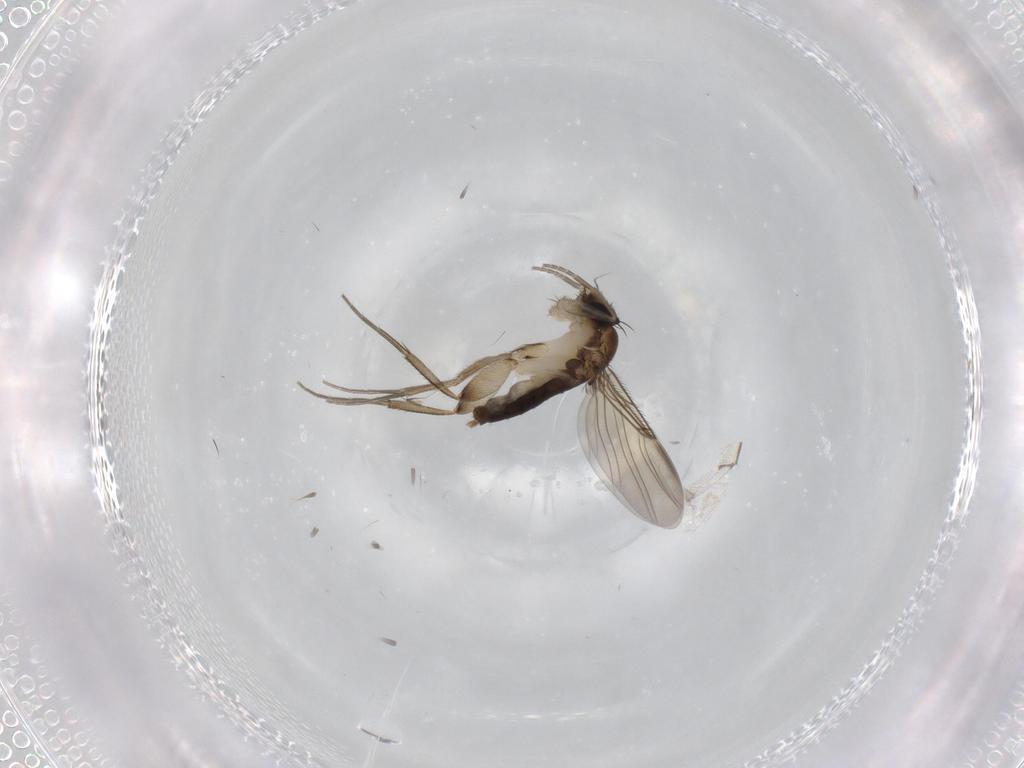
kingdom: Animalia
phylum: Arthropoda
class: Insecta
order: Diptera
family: Phoridae
